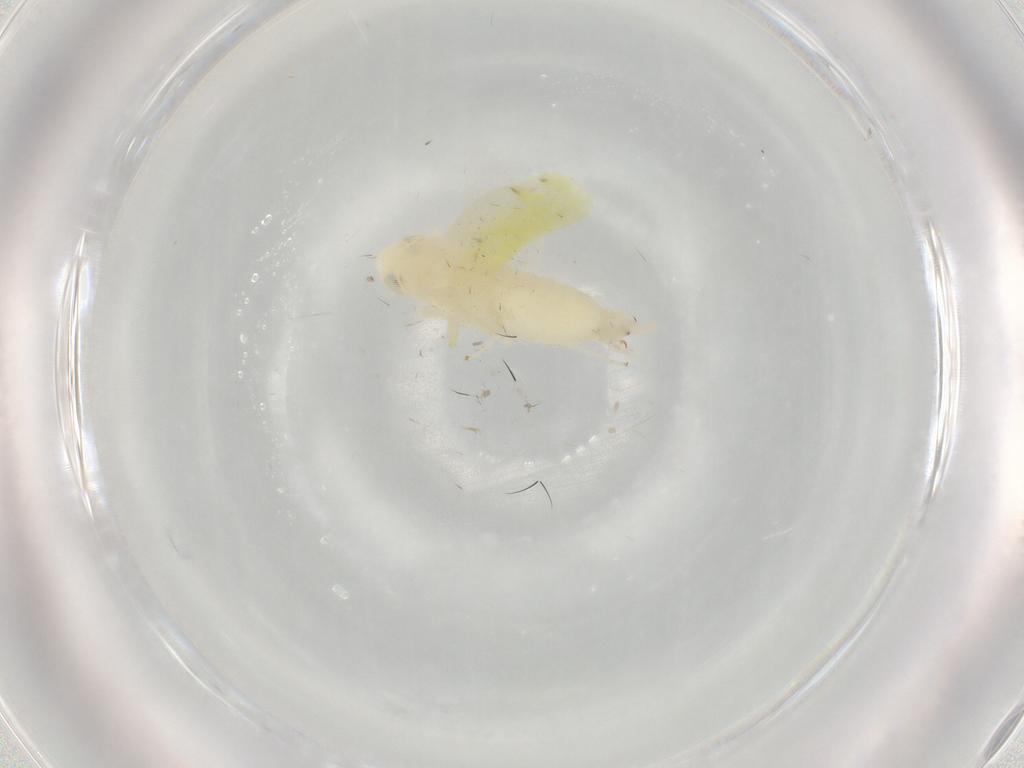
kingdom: Animalia
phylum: Arthropoda
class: Insecta
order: Hemiptera
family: Cicadellidae
